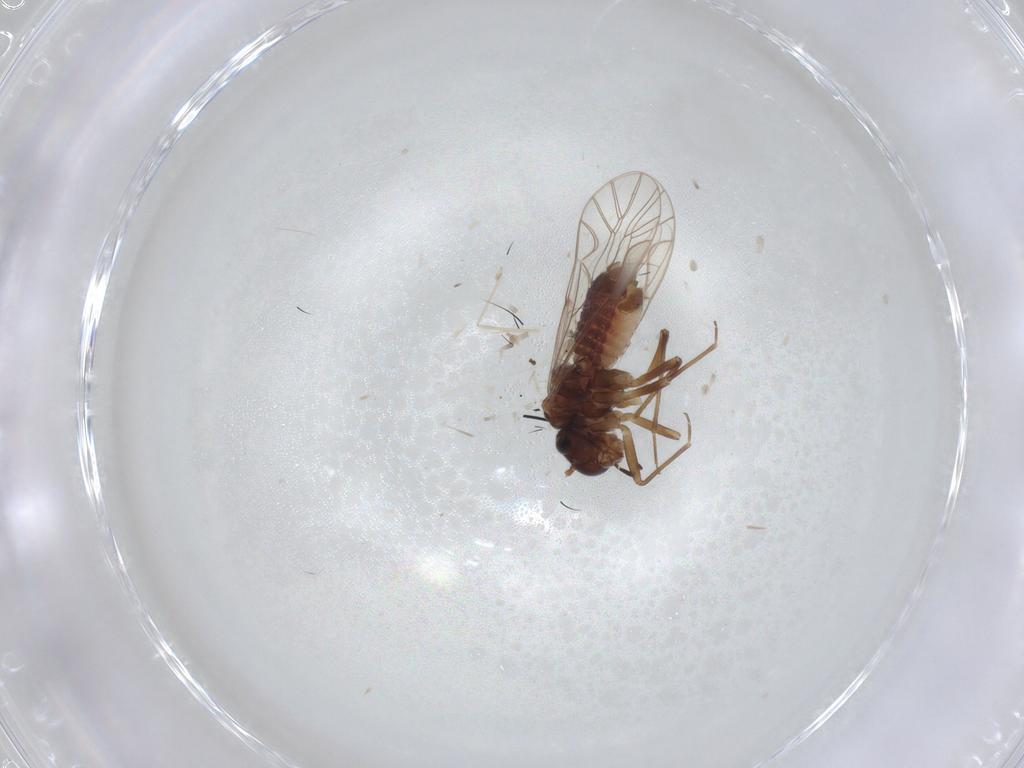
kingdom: Animalia
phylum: Arthropoda
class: Insecta
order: Psocodea
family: Lachesillidae
